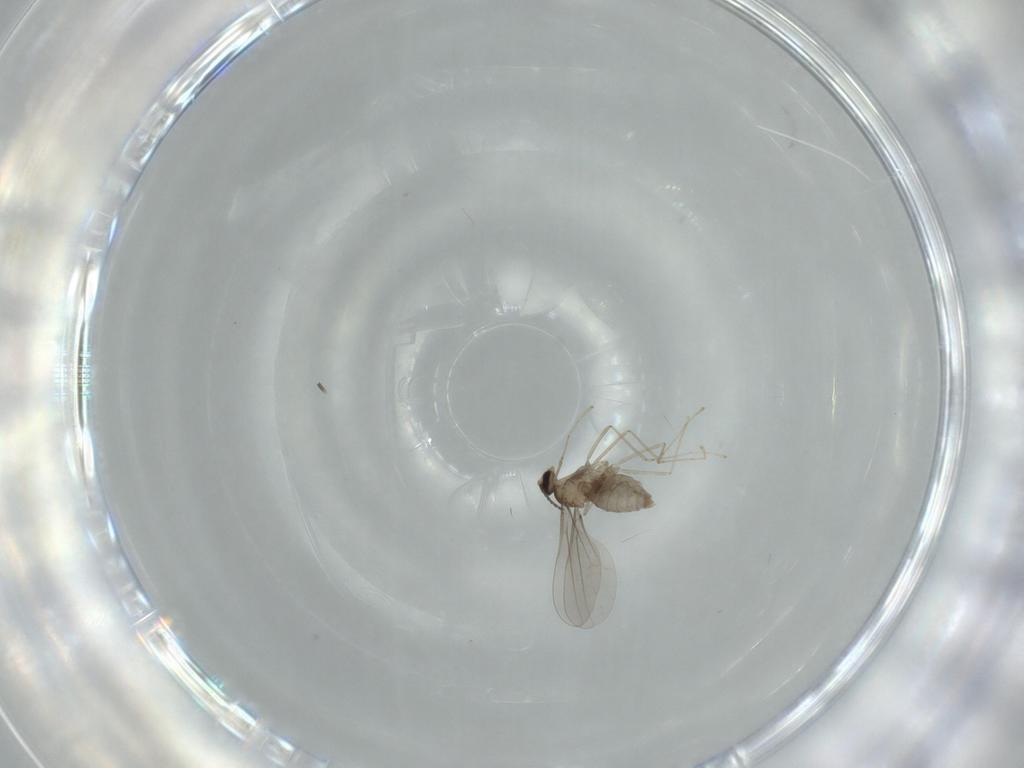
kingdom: Animalia
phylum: Arthropoda
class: Insecta
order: Diptera
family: Cecidomyiidae
